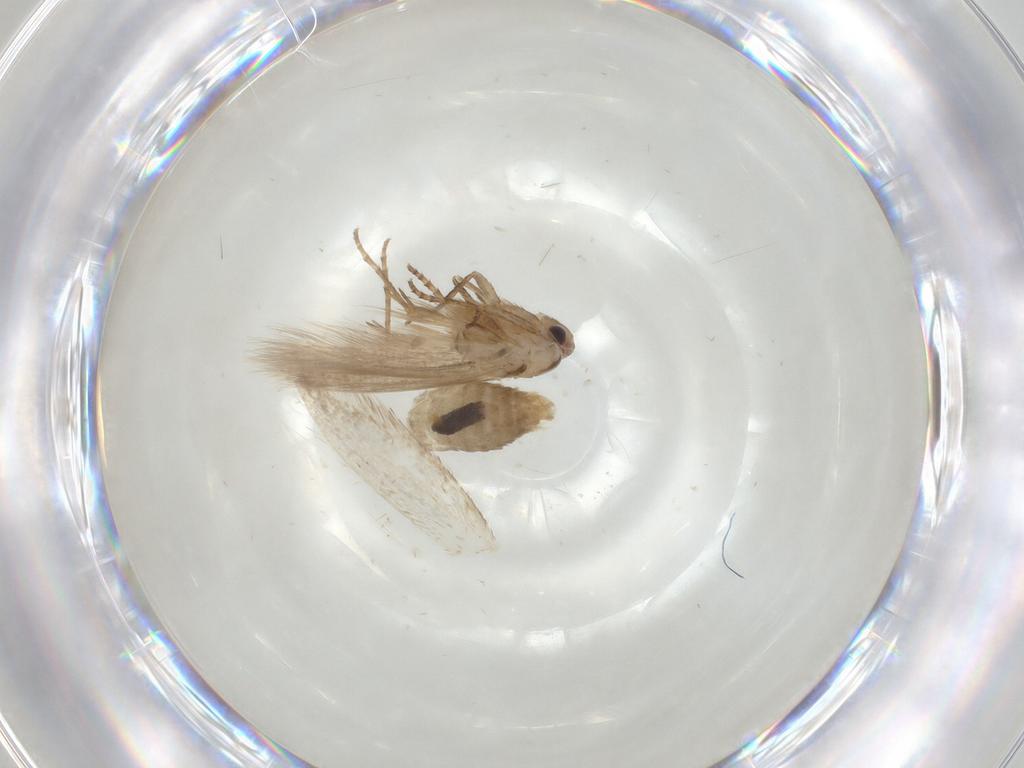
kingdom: Animalia
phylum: Arthropoda
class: Insecta
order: Lepidoptera
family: Bucculatricidae
